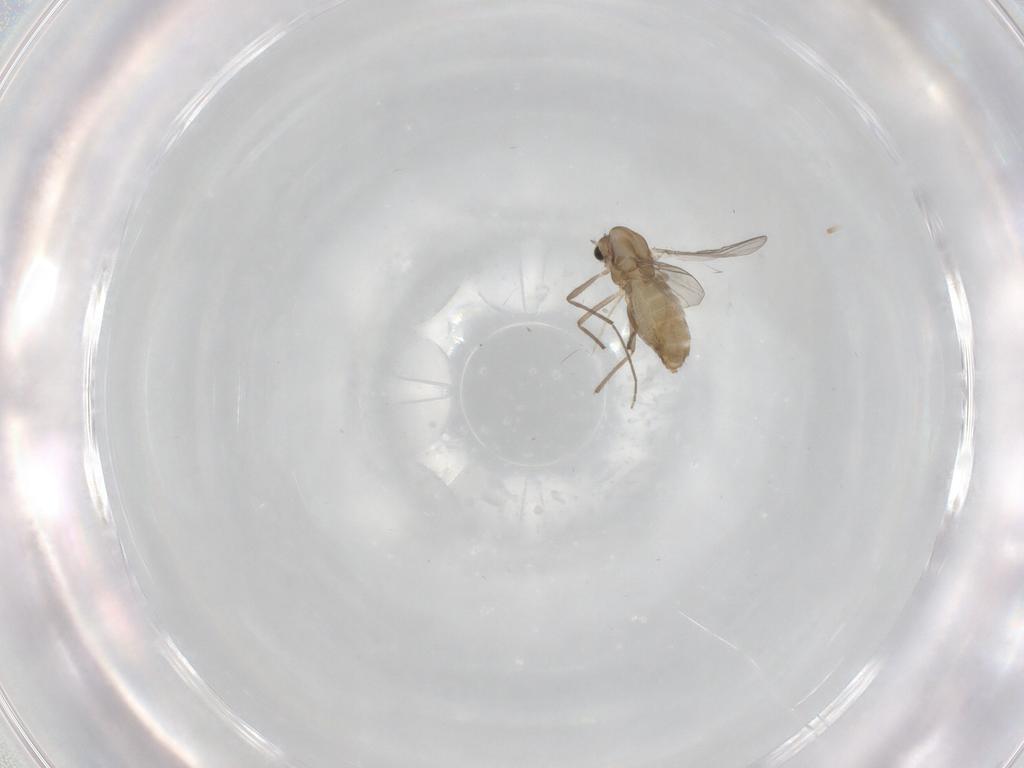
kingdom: Animalia
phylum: Arthropoda
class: Insecta
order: Diptera
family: Chironomidae
